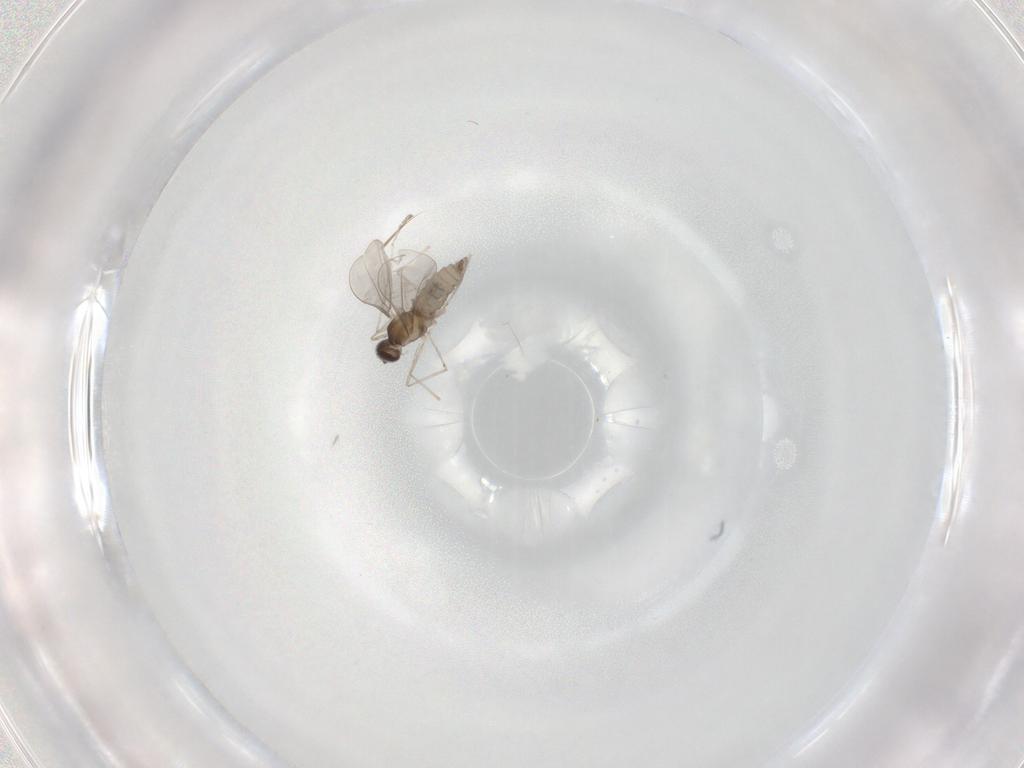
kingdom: Animalia
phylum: Arthropoda
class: Insecta
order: Diptera
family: Cecidomyiidae
